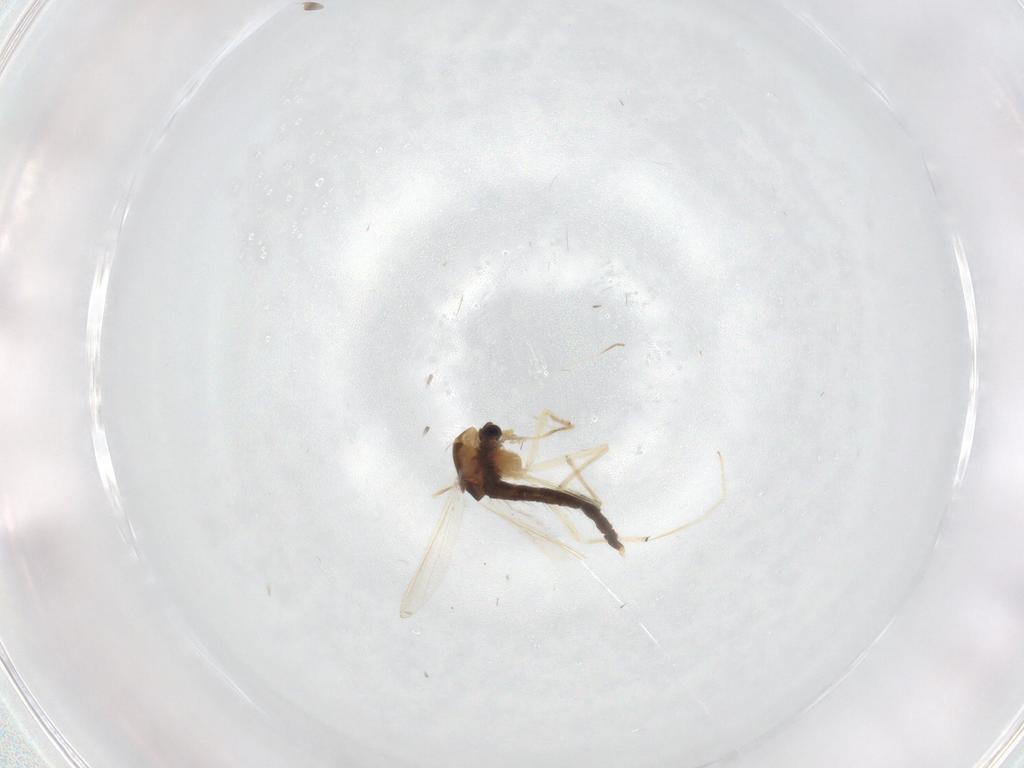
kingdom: Animalia
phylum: Arthropoda
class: Insecta
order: Diptera
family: Chironomidae
